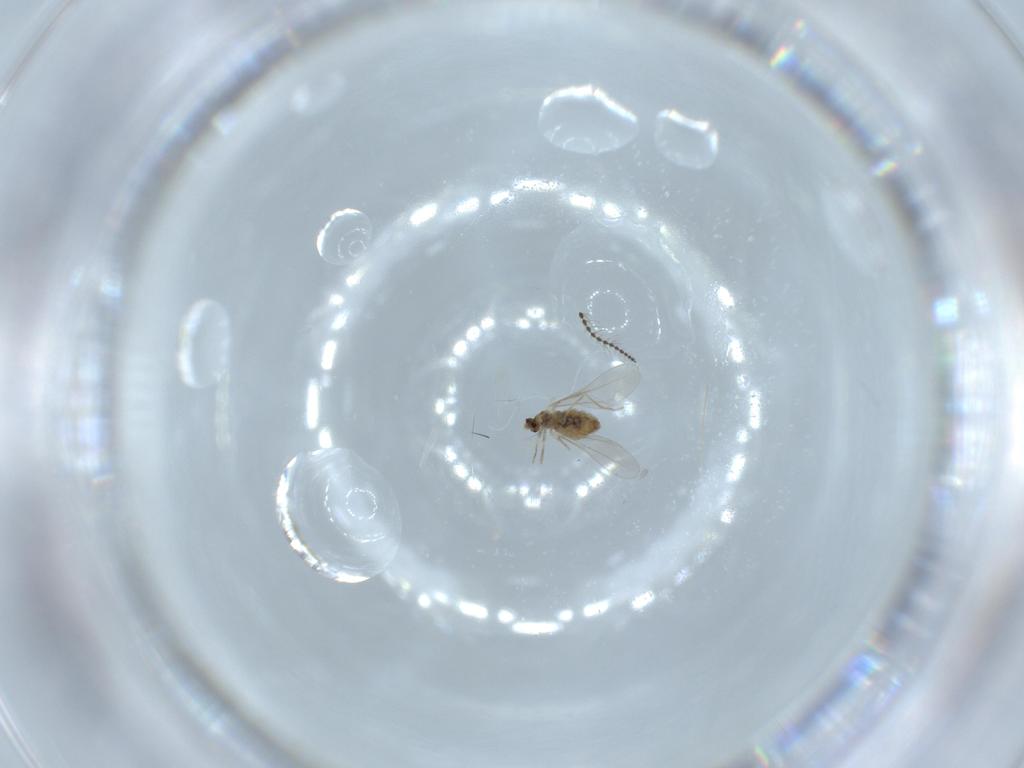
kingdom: Animalia
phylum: Arthropoda
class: Insecta
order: Diptera
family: Cecidomyiidae
